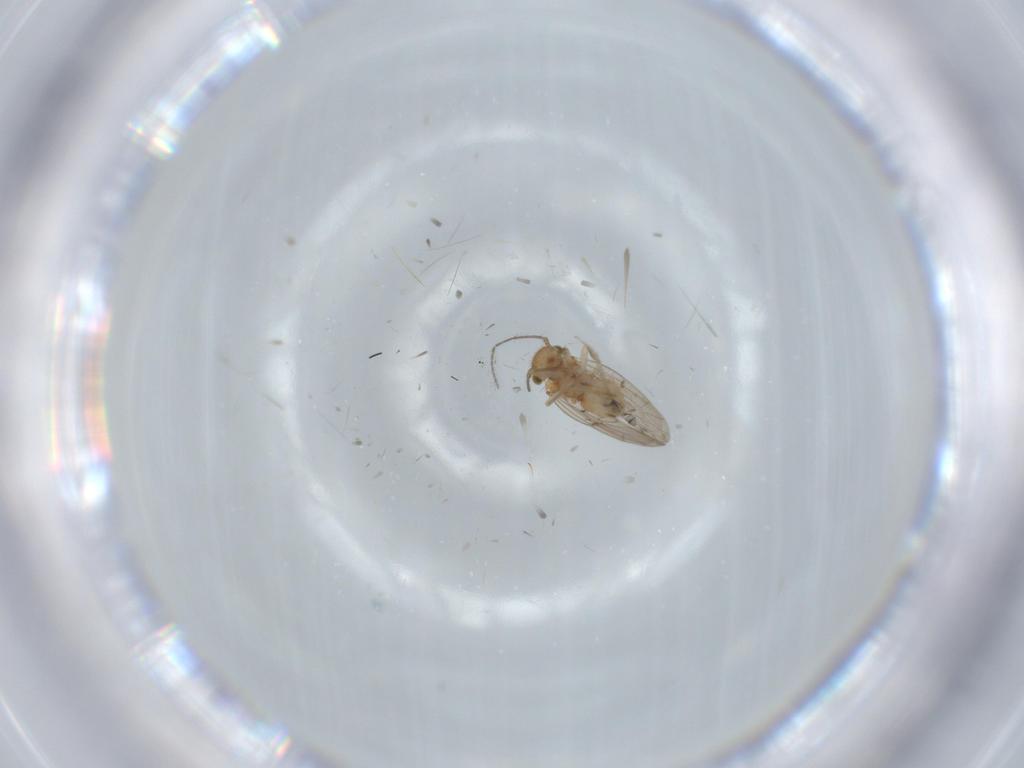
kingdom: Animalia
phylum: Arthropoda
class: Insecta
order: Psocodea
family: Ectopsocidae
